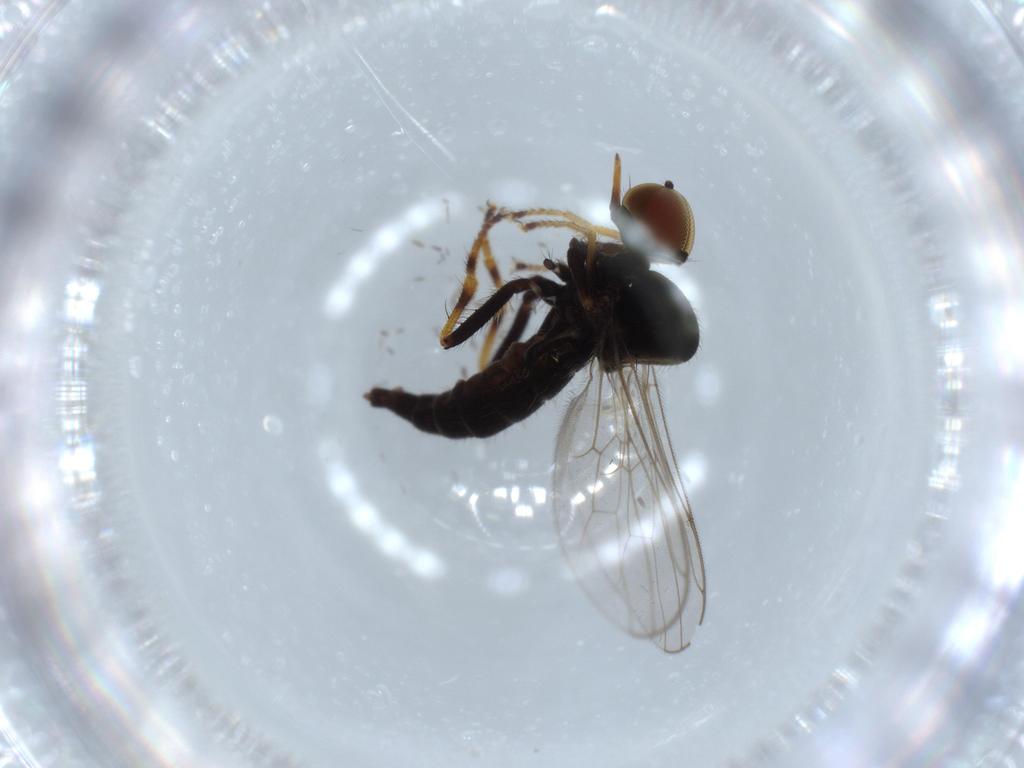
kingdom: Animalia
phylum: Arthropoda
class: Insecta
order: Diptera
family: Hybotidae
